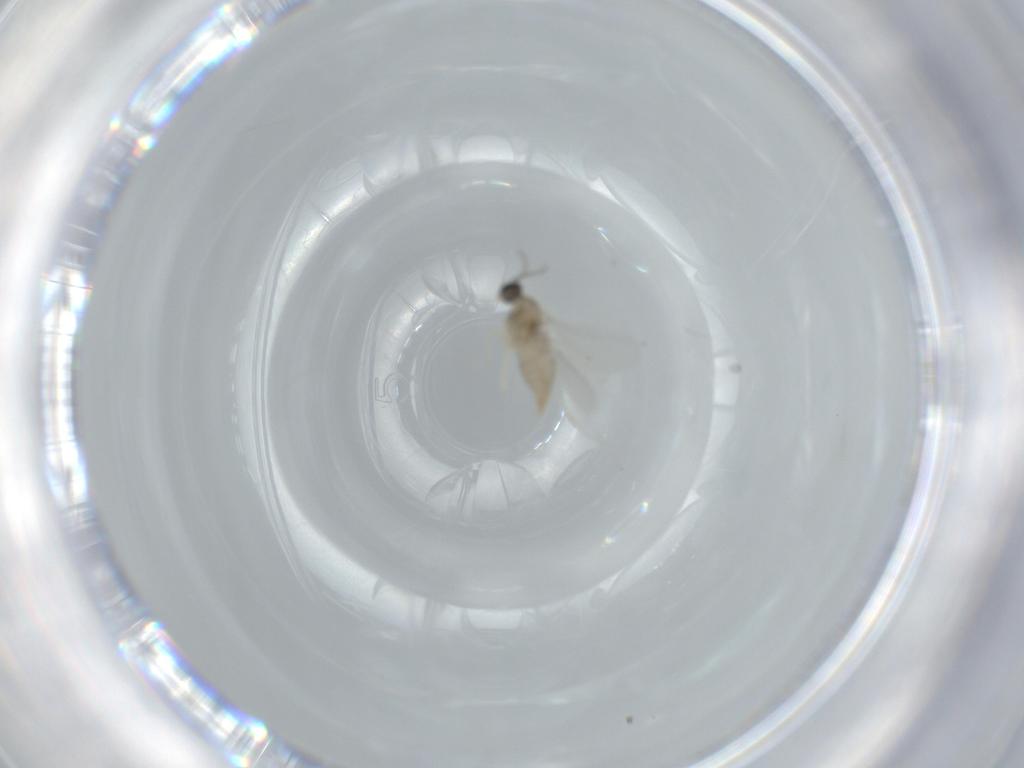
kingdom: Animalia
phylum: Arthropoda
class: Insecta
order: Diptera
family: Cecidomyiidae
